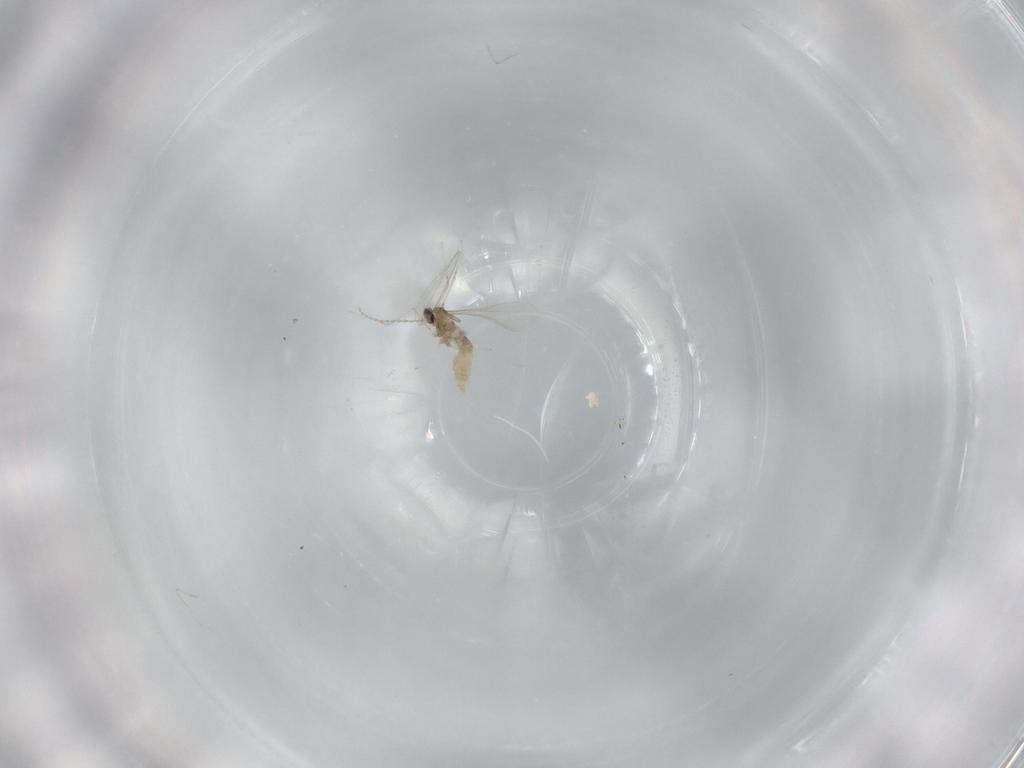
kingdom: Animalia
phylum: Arthropoda
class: Insecta
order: Diptera
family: Cecidomyiidae
